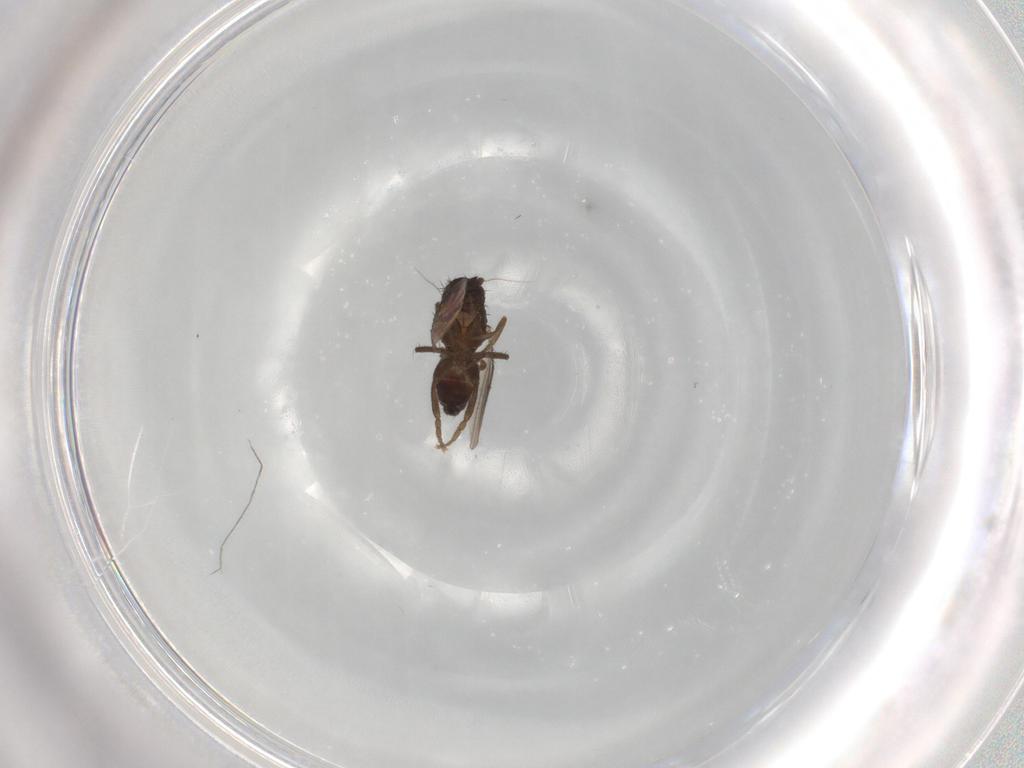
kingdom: Animalia
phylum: Arthropoda
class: Insecta
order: Diptera
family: Sphaeroceridae
